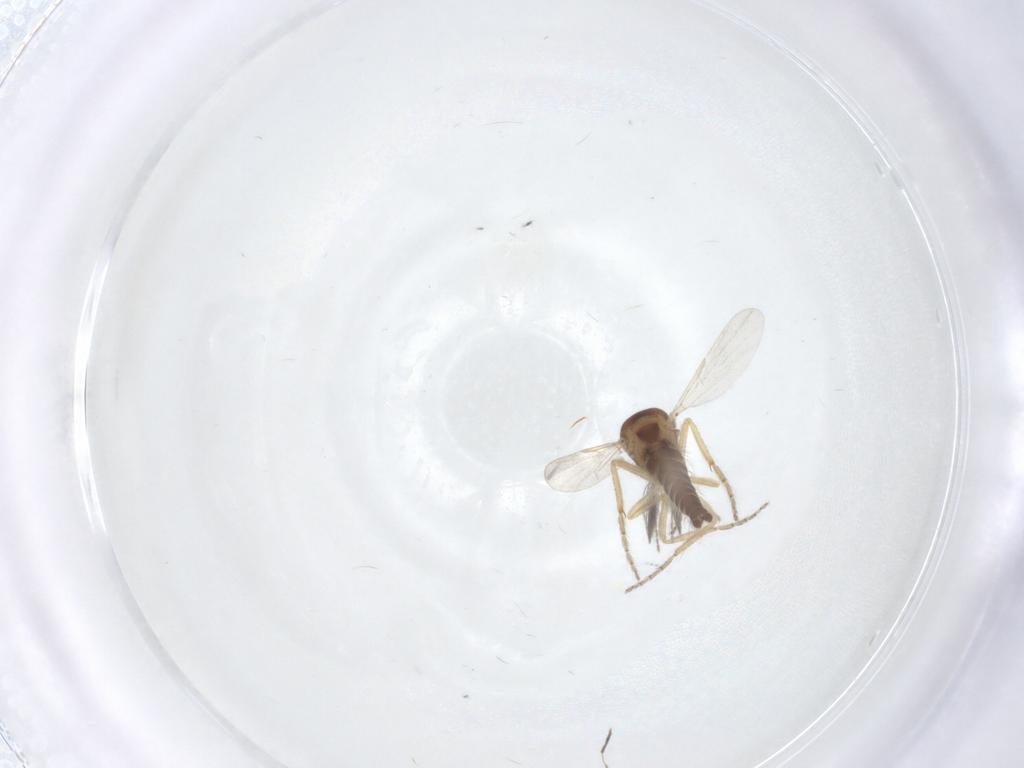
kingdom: Animalia
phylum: Arthropoda
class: Insecta
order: Diptera
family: Ceratopogonidae
